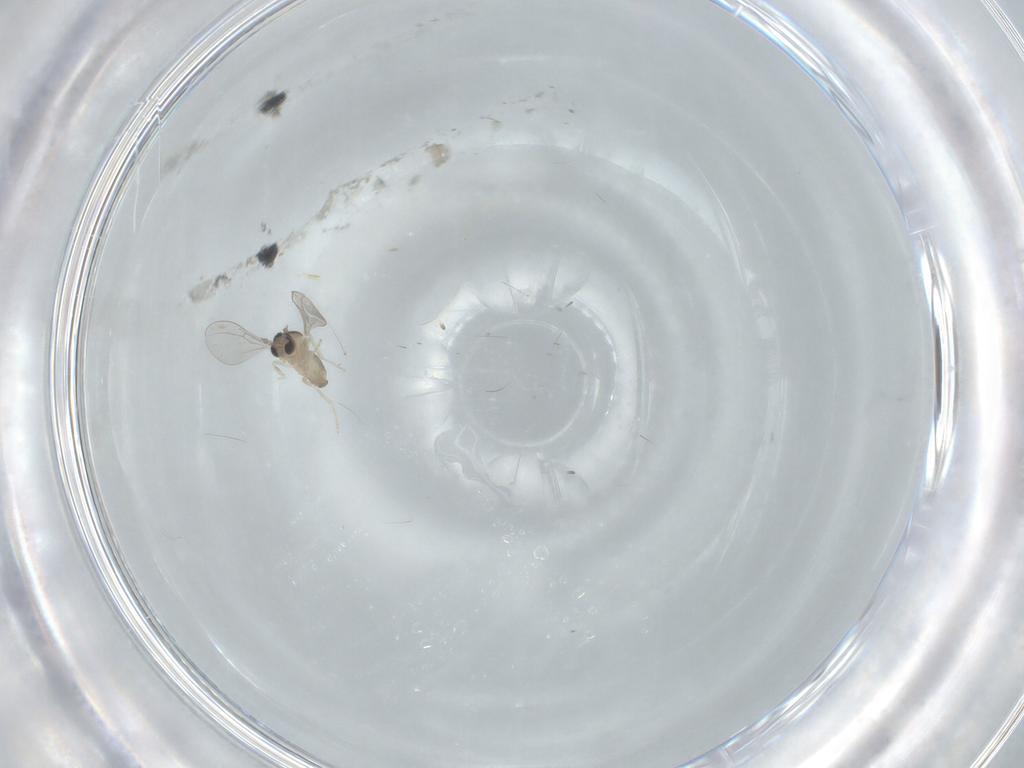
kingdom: Animalia
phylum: Arthropoda
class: Insecta
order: Diptera
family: Cecidomyiidae
